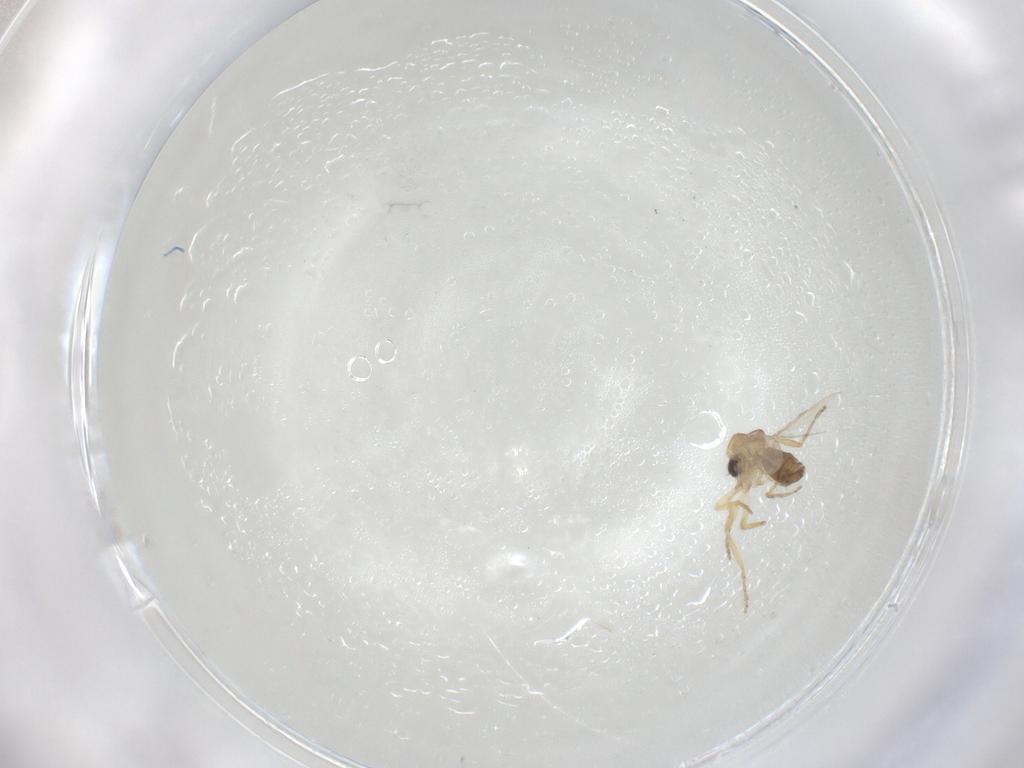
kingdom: Animalia
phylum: Arthropoda
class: Insecta
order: Diptera
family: Ceratopogonidae
